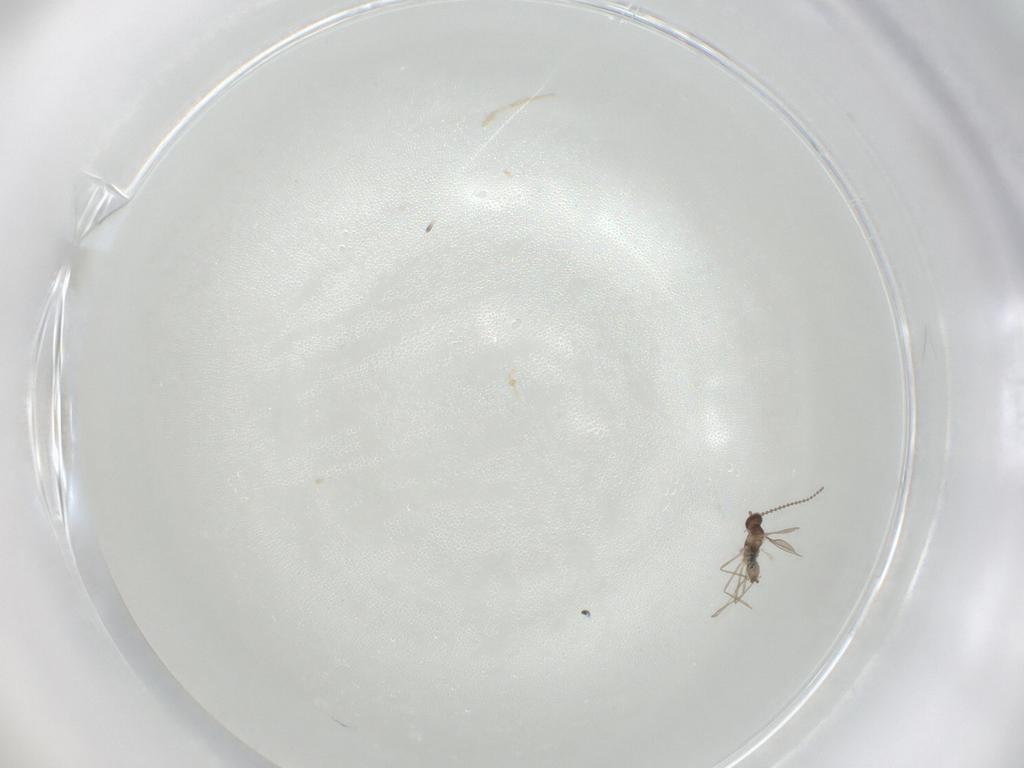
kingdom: Animalia
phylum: Arthropoda
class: Insecta
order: Diptera
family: Cecidomyiidae
